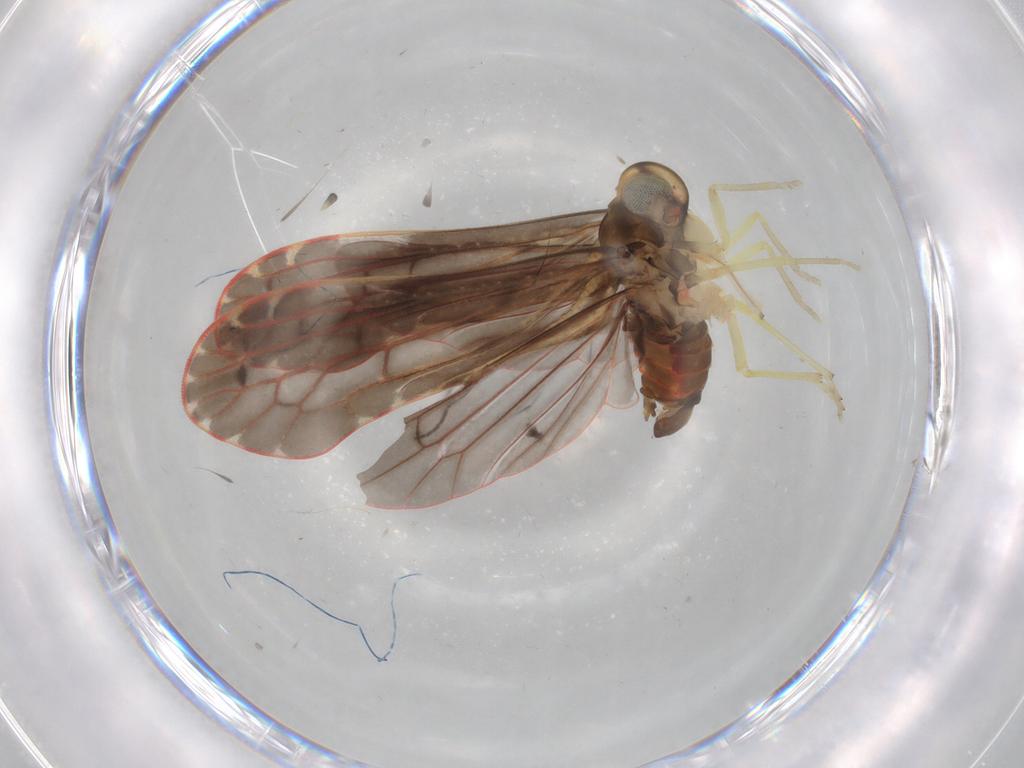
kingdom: Animalia
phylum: Arthropoda
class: Insecta
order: Hemiptera
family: Derbidae
